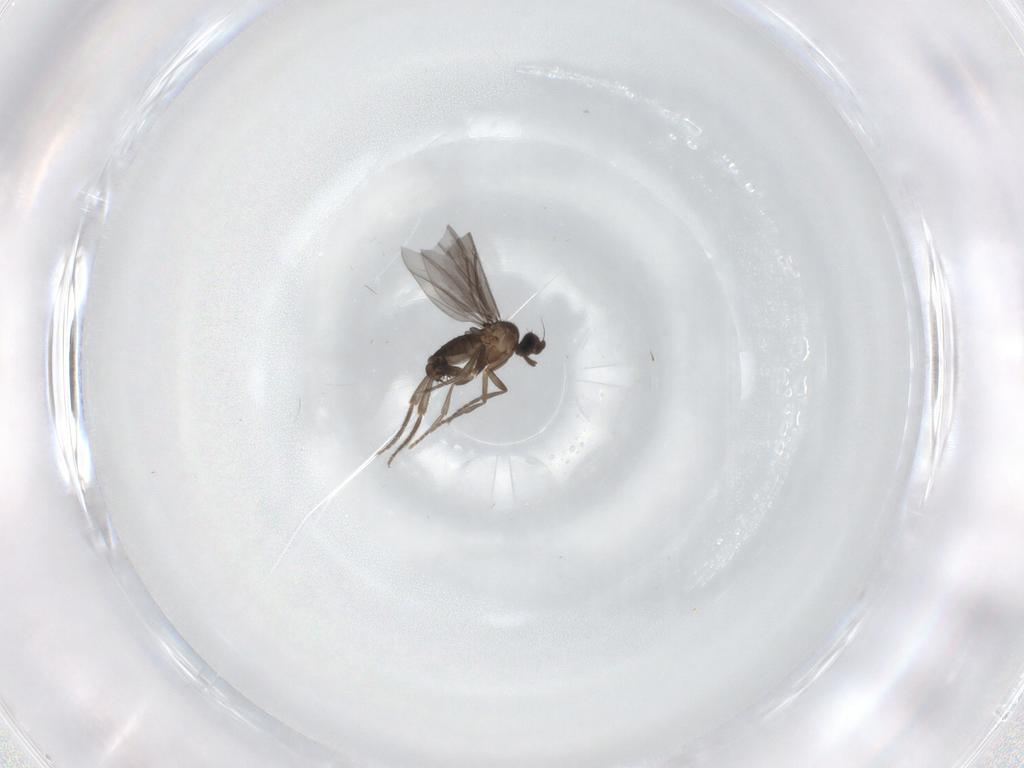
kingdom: Animalia
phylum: Arthropoda
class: Insecta
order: Diptera
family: Phoridae
